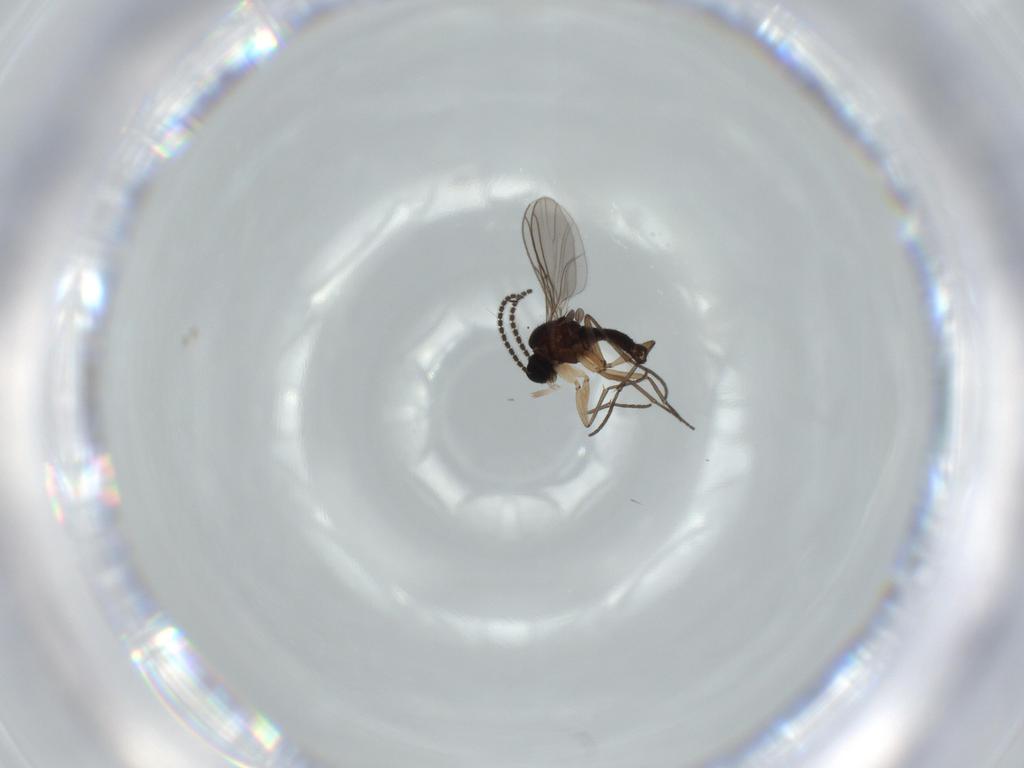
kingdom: Animalia
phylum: Arthropoda
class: Insecta
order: Diptera
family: Sciaridae
